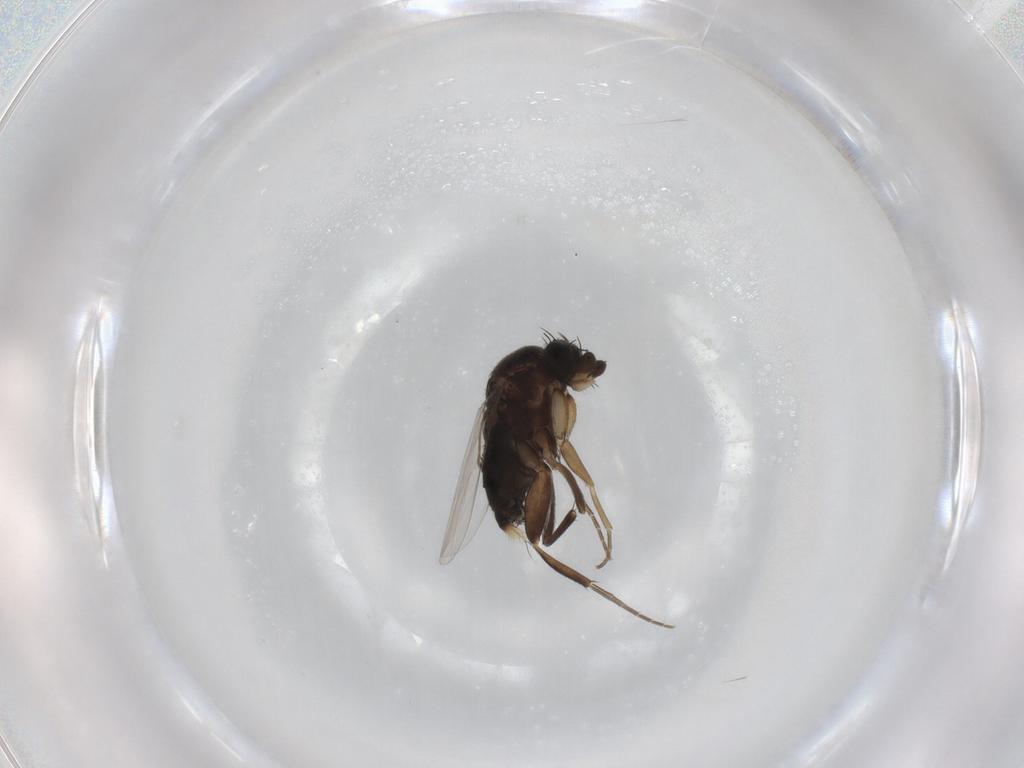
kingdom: Animalia
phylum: Arthropoda
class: Insecta
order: Diptera
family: Phoridae
